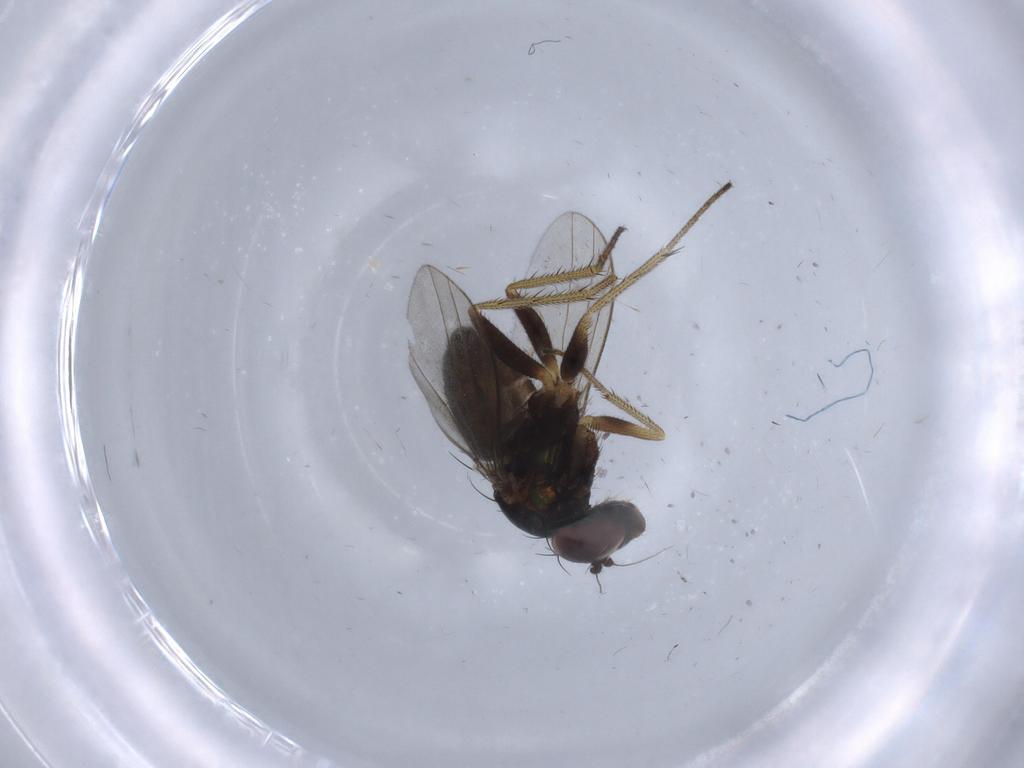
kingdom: Animalia
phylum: Arthropoda
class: Insecta
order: Diptera
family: Dolichopodidae
